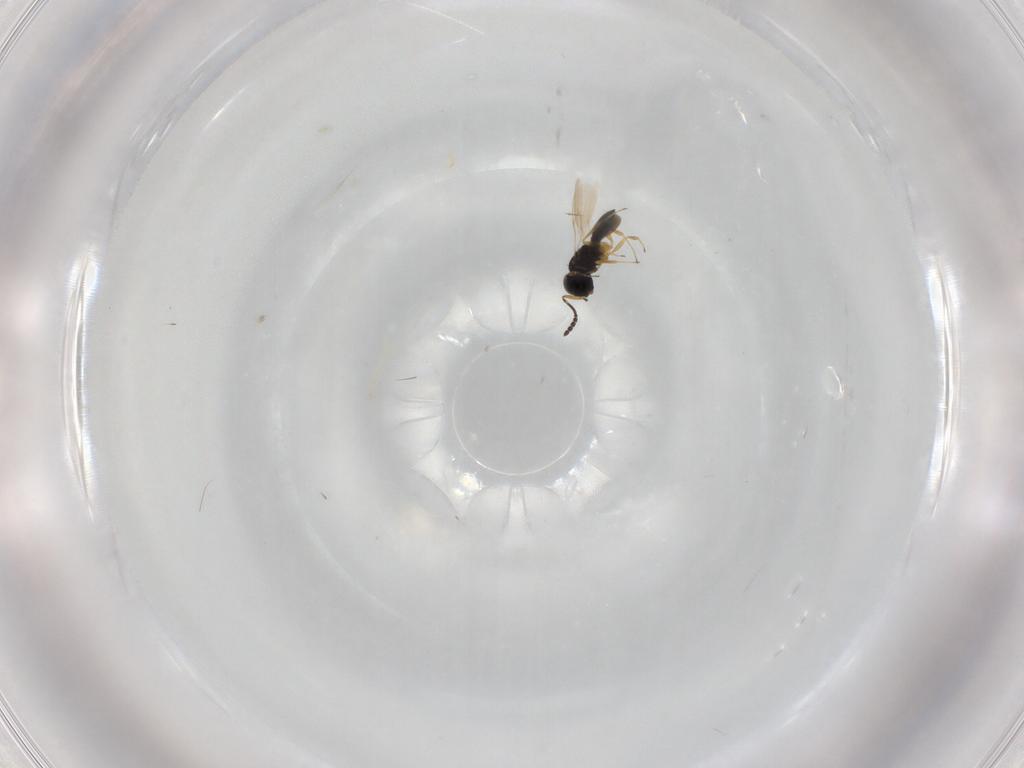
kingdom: Animalia
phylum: Arthropoda
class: Insecta
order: Hymenoptera
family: Scelionidae
